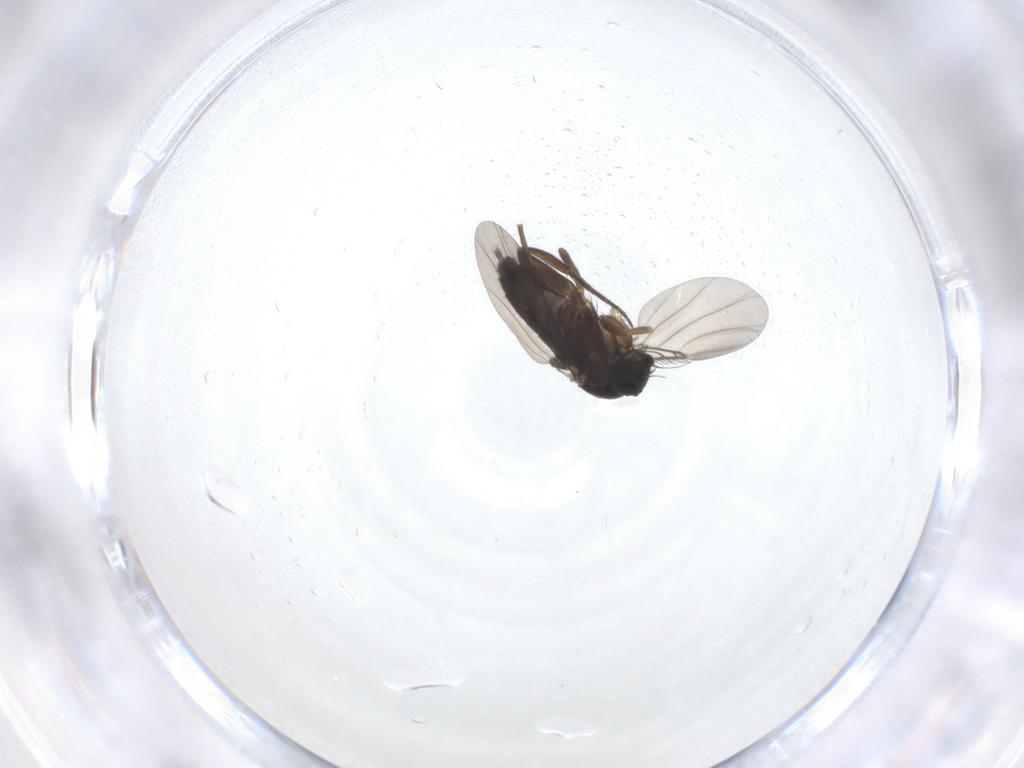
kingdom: Animalia
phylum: Arthropoda
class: Insecta
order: Diptera
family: Phoridae
